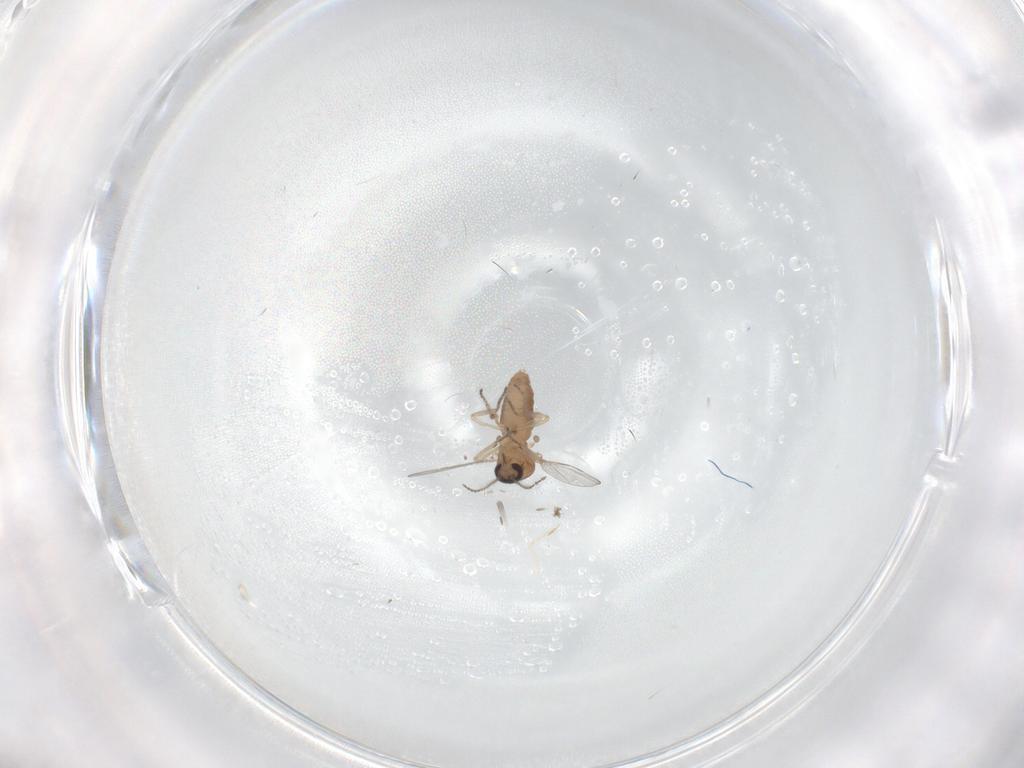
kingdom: Animalia
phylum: Arthropoda
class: Insecta
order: Diptera
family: Ceratopogonidae
